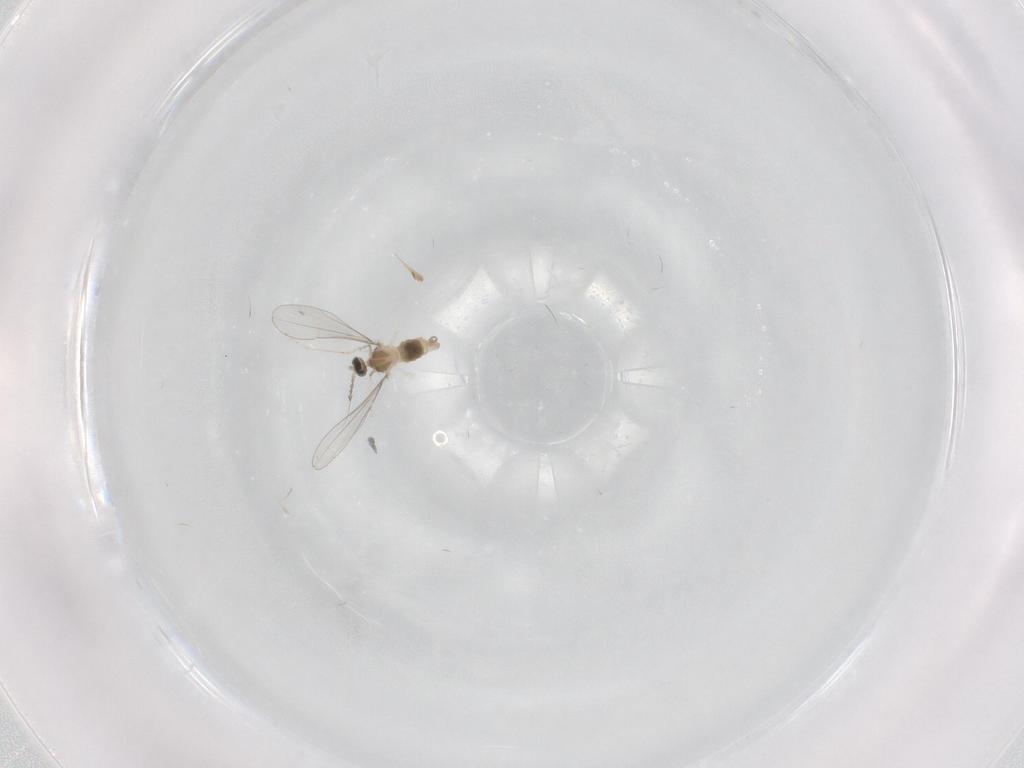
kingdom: Animalia
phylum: Arthropoda
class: Insecta
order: Diptera
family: Cecidomyiidae
